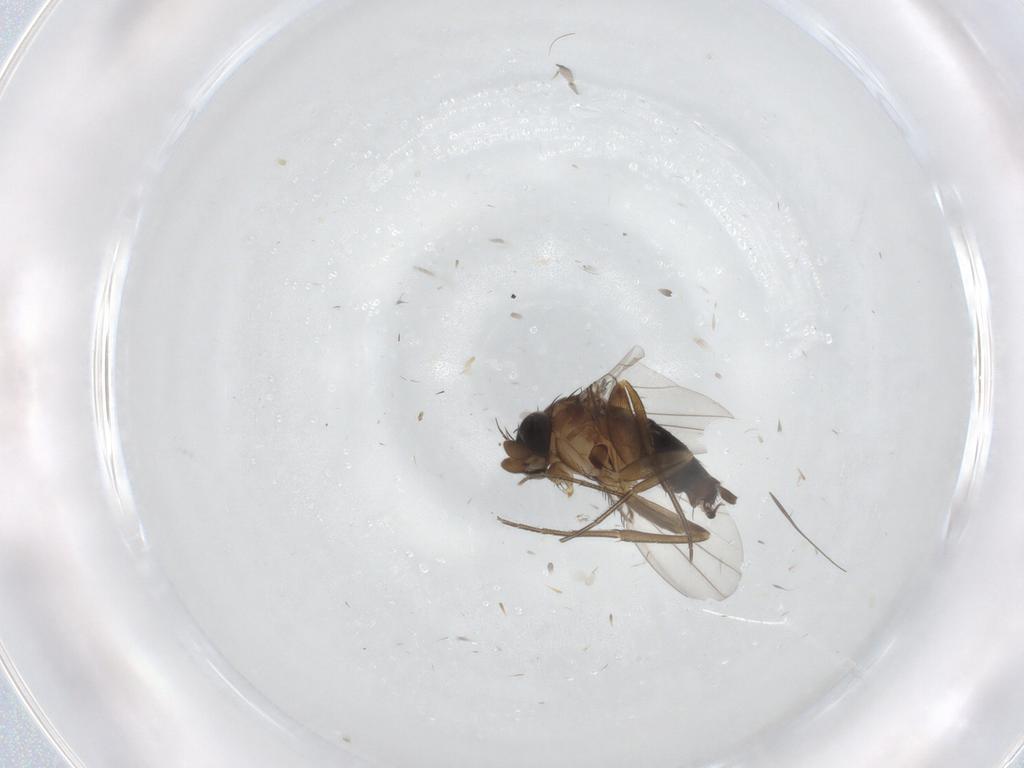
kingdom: Animalia
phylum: Arthropoda
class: Insecta
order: Diptera
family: Phoridae
